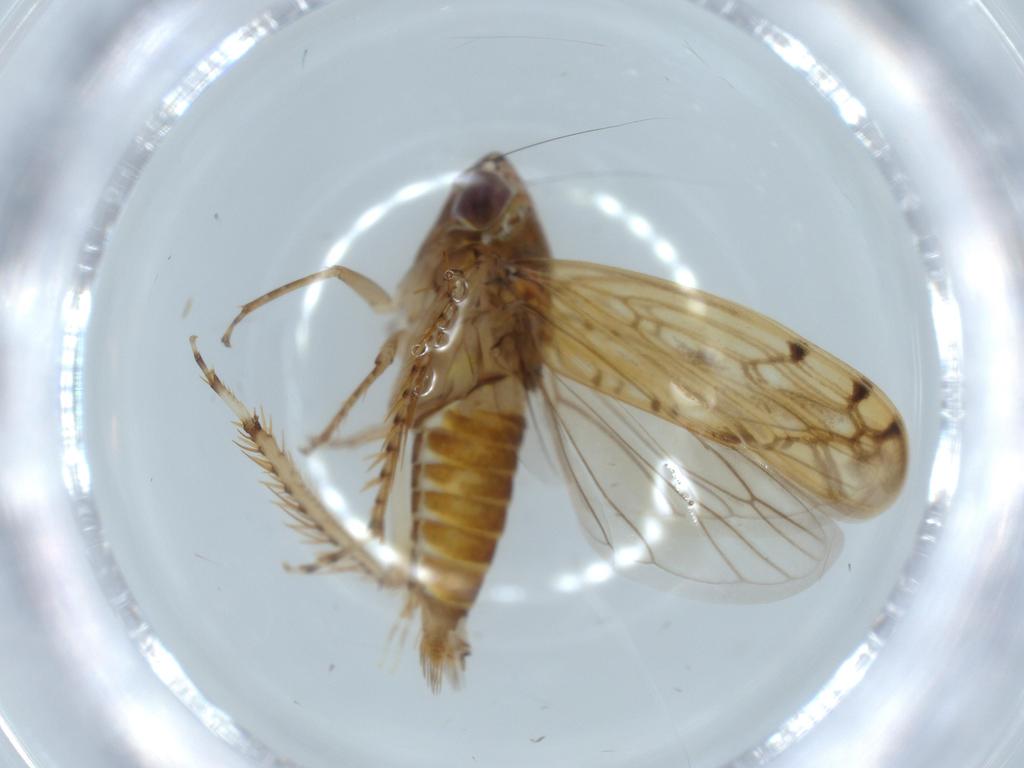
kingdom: Animalia
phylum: Arthropoda
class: Insecta
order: Hemiptera
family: Cicadellidae
